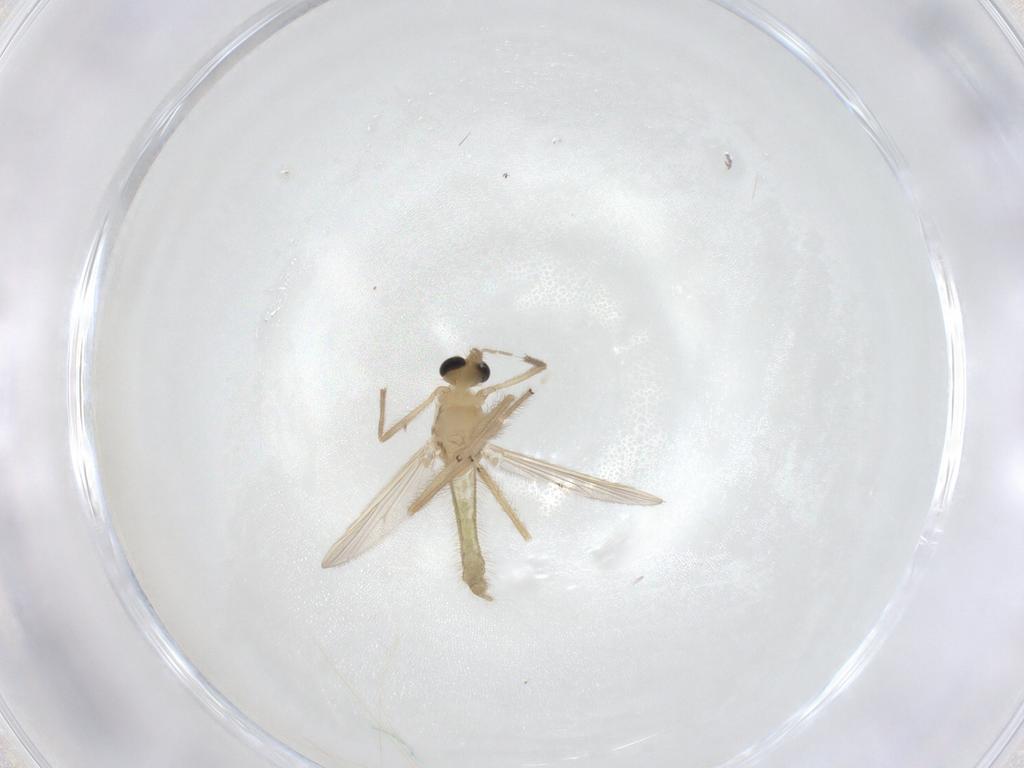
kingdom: Animalia
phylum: Arthropoda
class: Insecta
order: Diptera
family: Chironomidae
